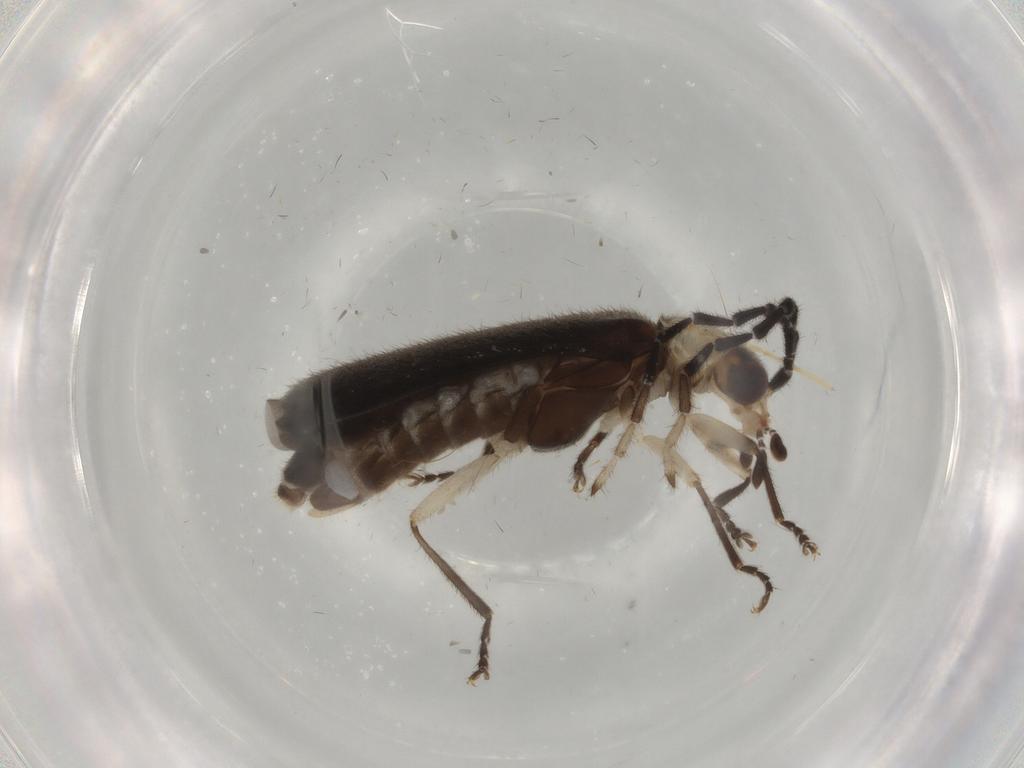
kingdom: Animalia
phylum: Arthropoda
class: Insecta
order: Coleoptera
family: Cantharidae
